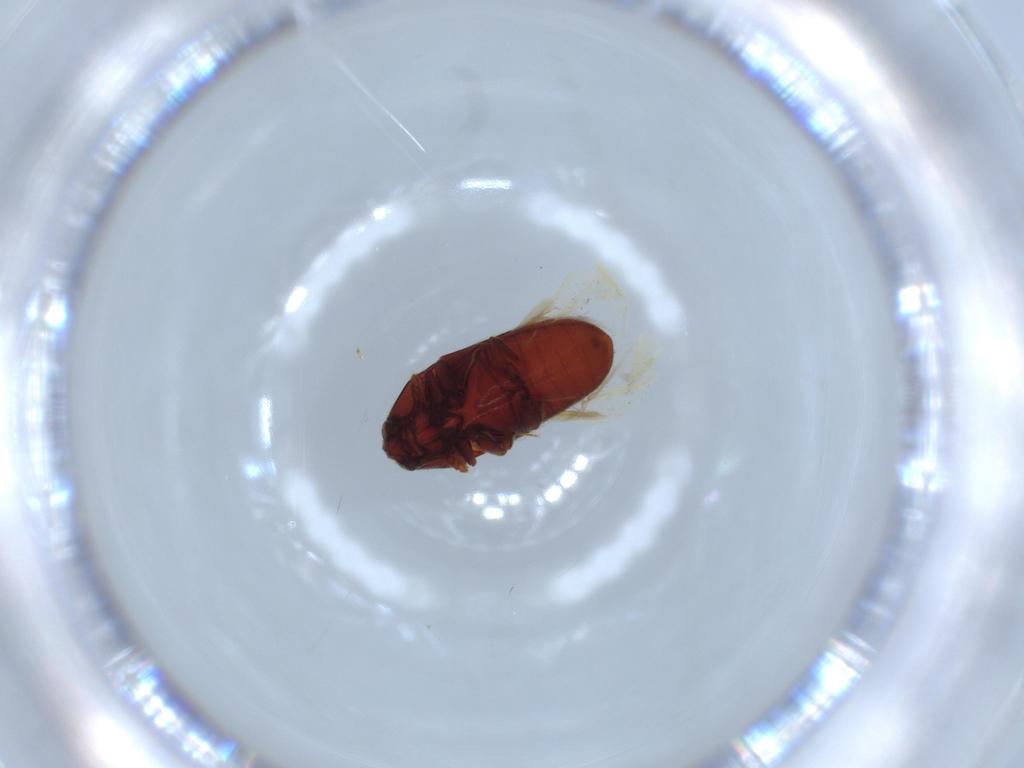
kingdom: Animalia
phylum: Arthropoda
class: Insecta
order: Coleoptera
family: Throscidae
